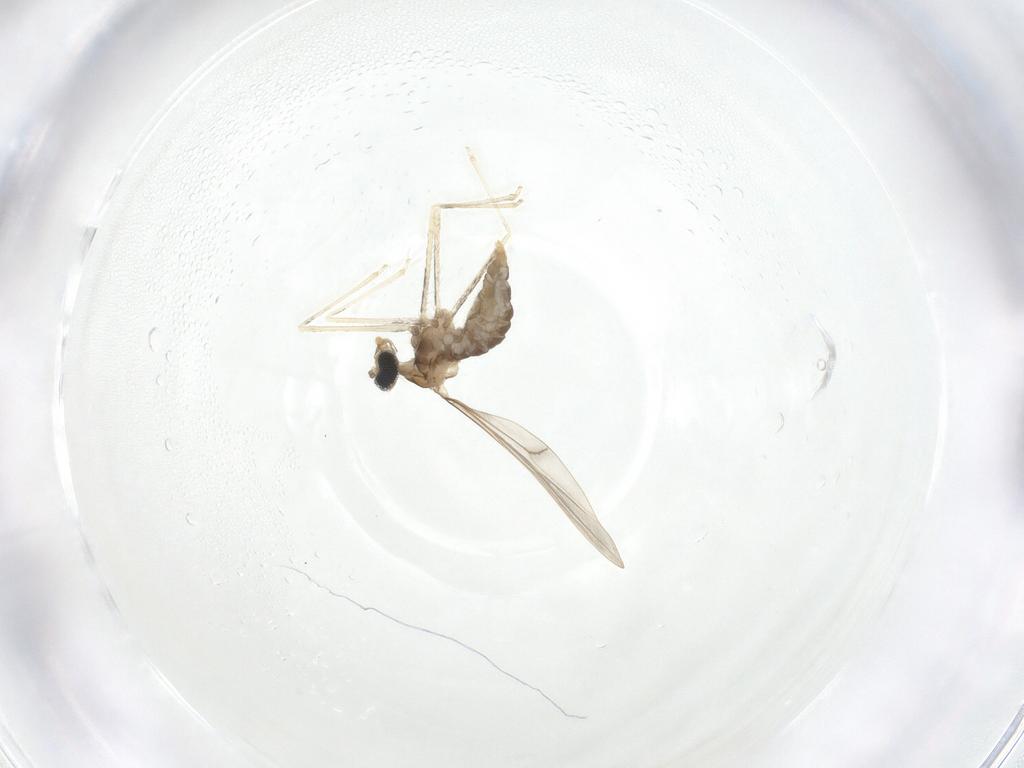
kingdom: Animalia
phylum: Arthropoda
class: Insecta
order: Diptera
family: Cecidomyiidae
